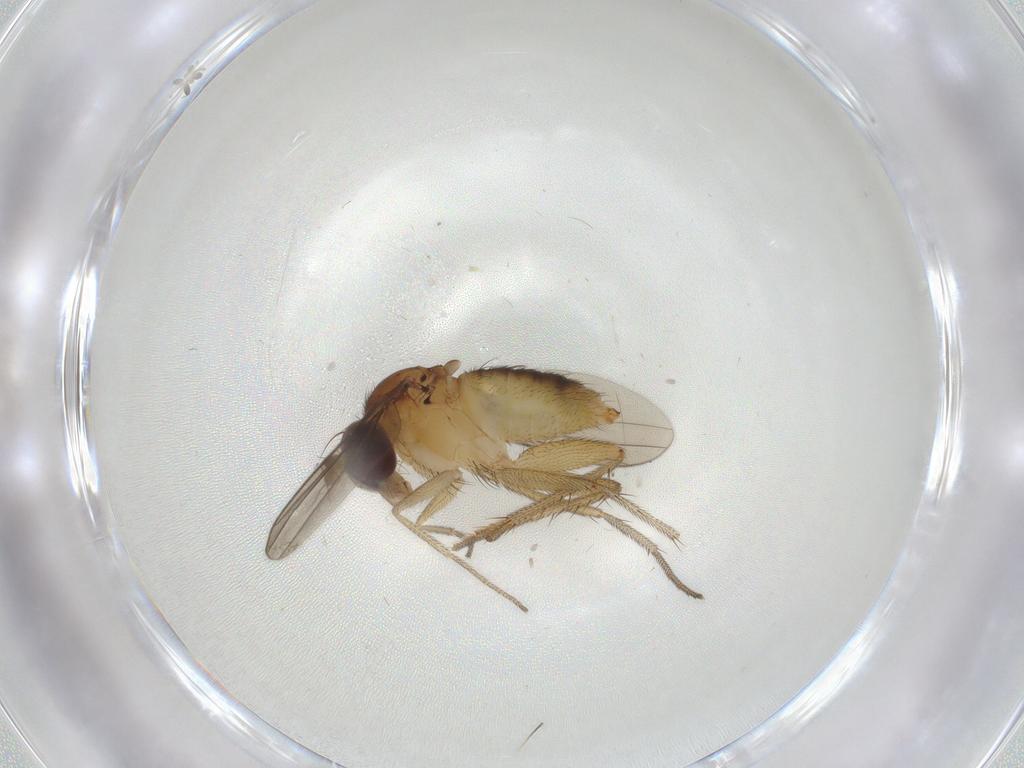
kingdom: Animalia
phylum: Arthropoda
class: Insecta
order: Diptera
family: Dolichopodidae
